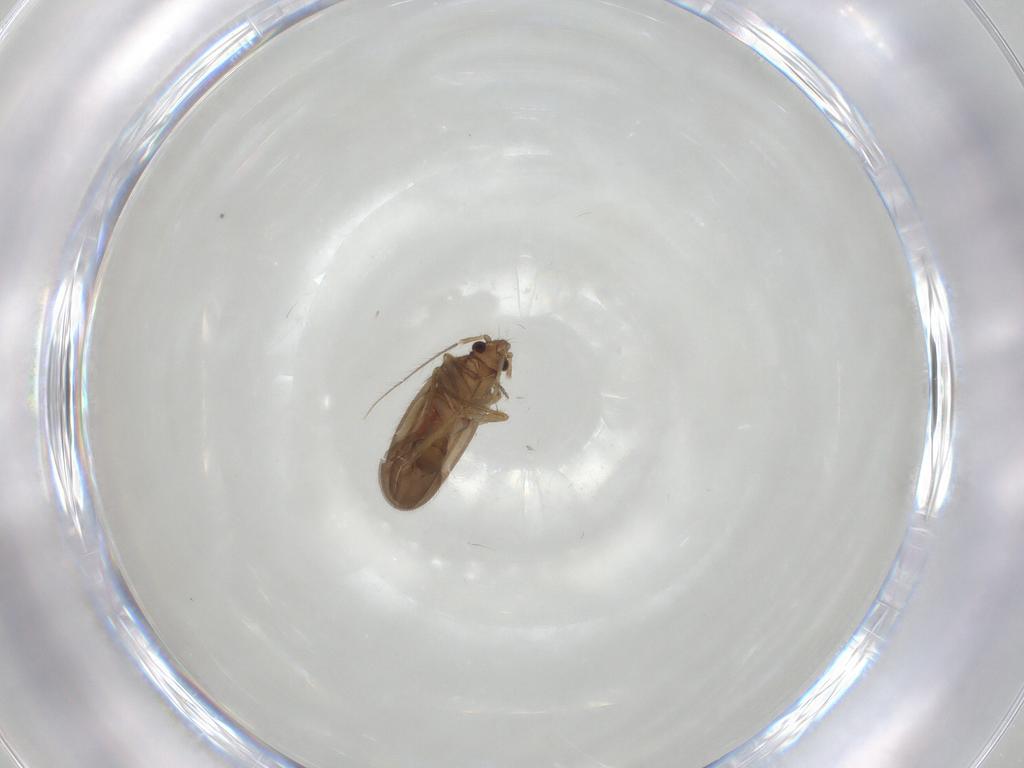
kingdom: Animalia
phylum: Arthropoda
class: Insecta
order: Hemiptera
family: Ceratocombidae
